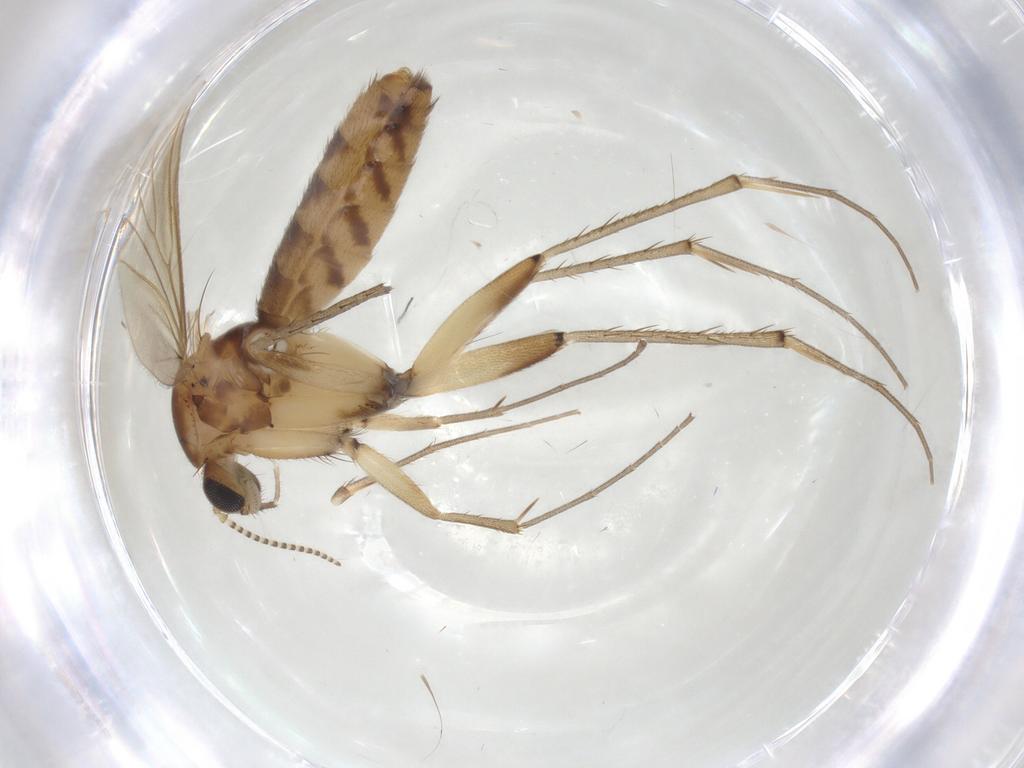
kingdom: Animalia
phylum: Arthropoda
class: Insecta
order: Diptera
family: Mycetophilidae
